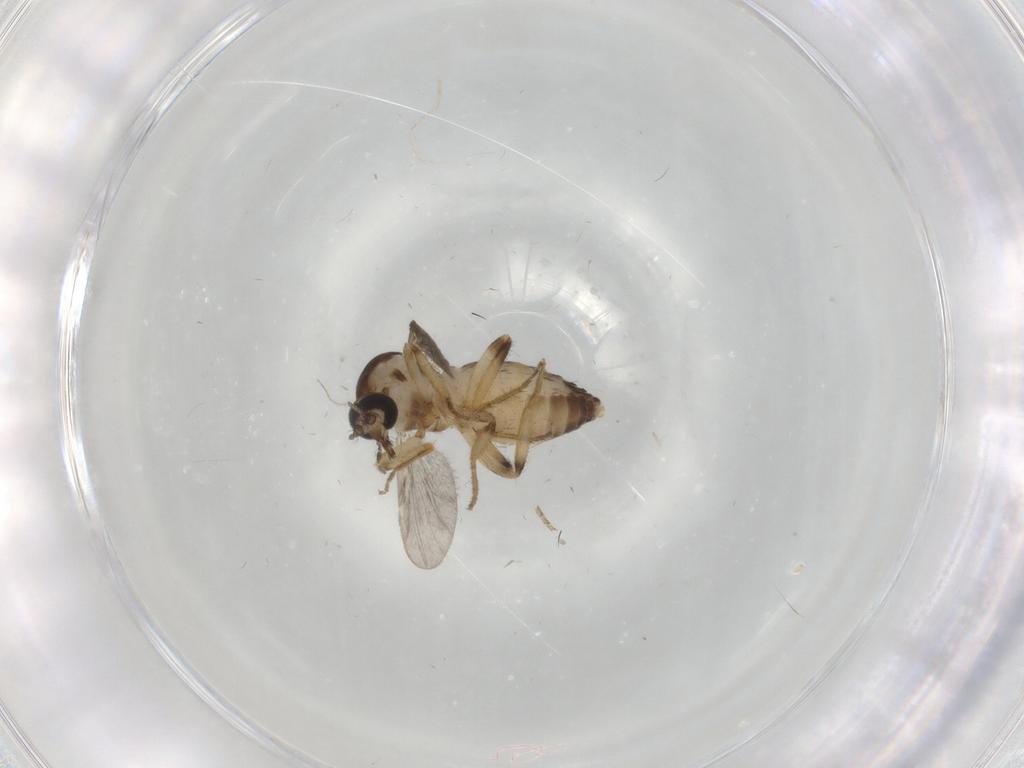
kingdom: Animalia
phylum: Arthropoda
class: Insecta
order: Diptera
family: Ceratopogonidae
